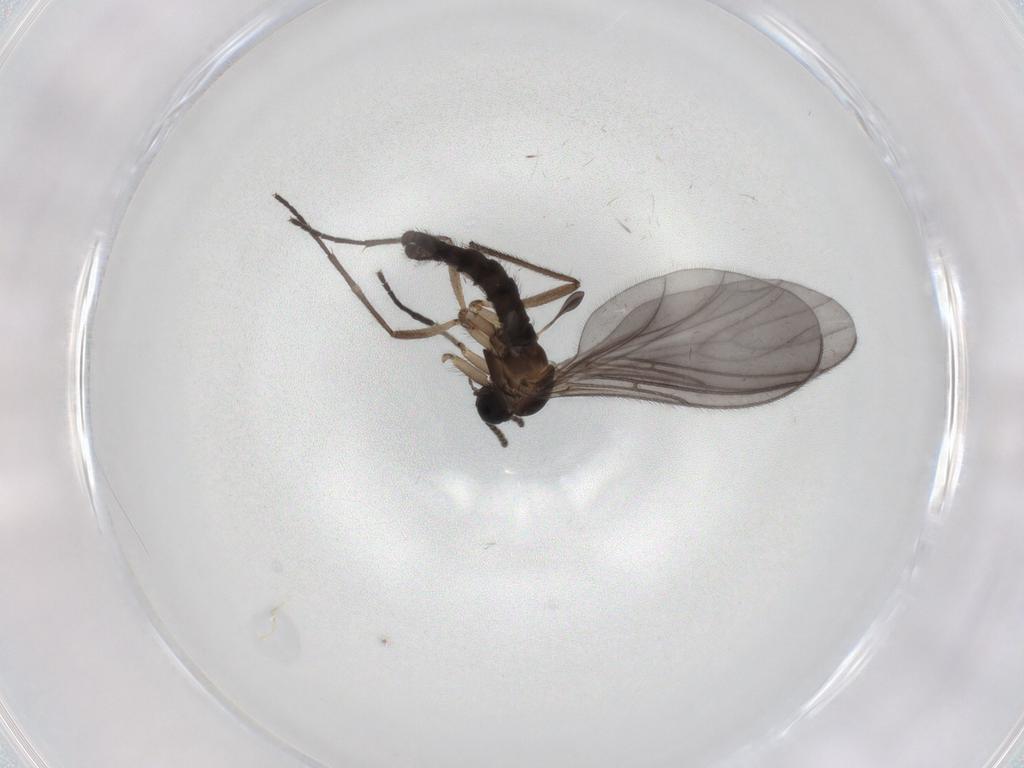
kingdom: Animalia
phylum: Arthropoda
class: Insecta
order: Diptera
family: Sciaridae
